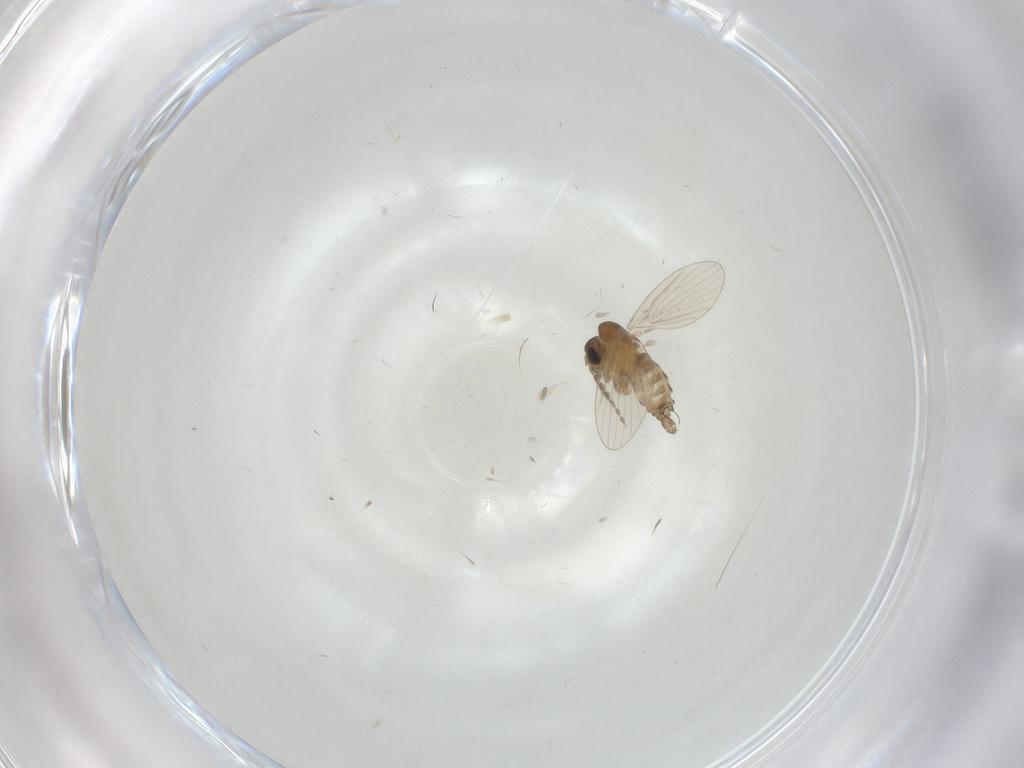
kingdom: Animalia
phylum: Arthropoda
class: Insecta
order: Diptera
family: Psychodidae
